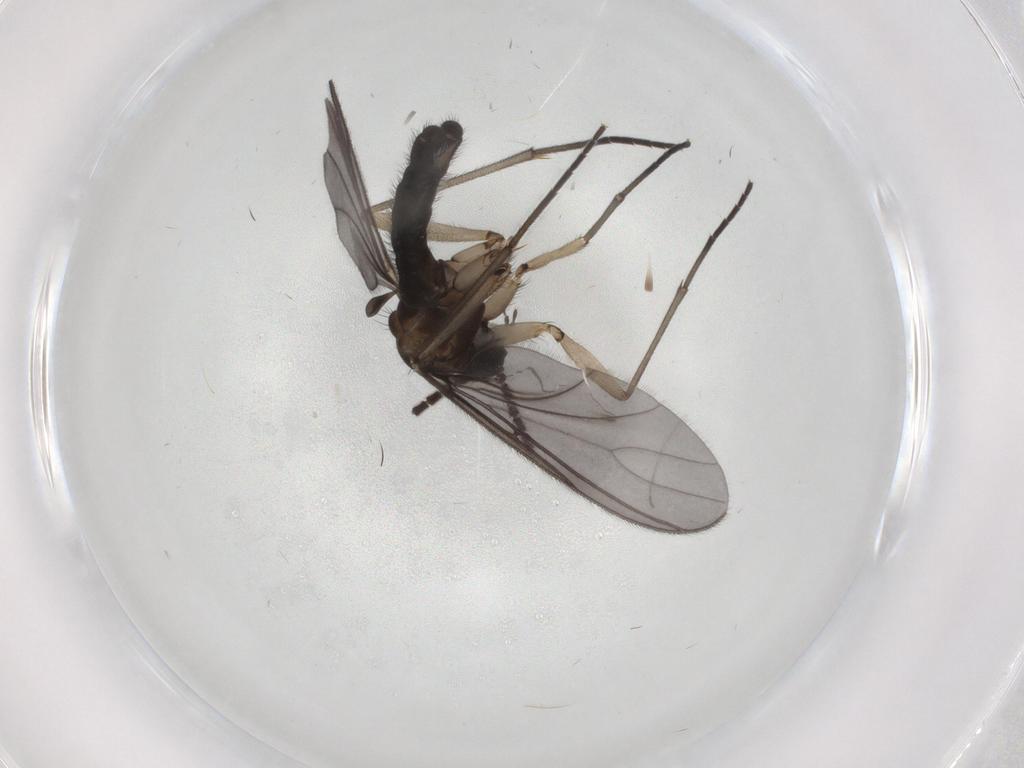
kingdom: Animalia
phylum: Arthropoda
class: Insecta
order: Diptera
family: Sciaridae
